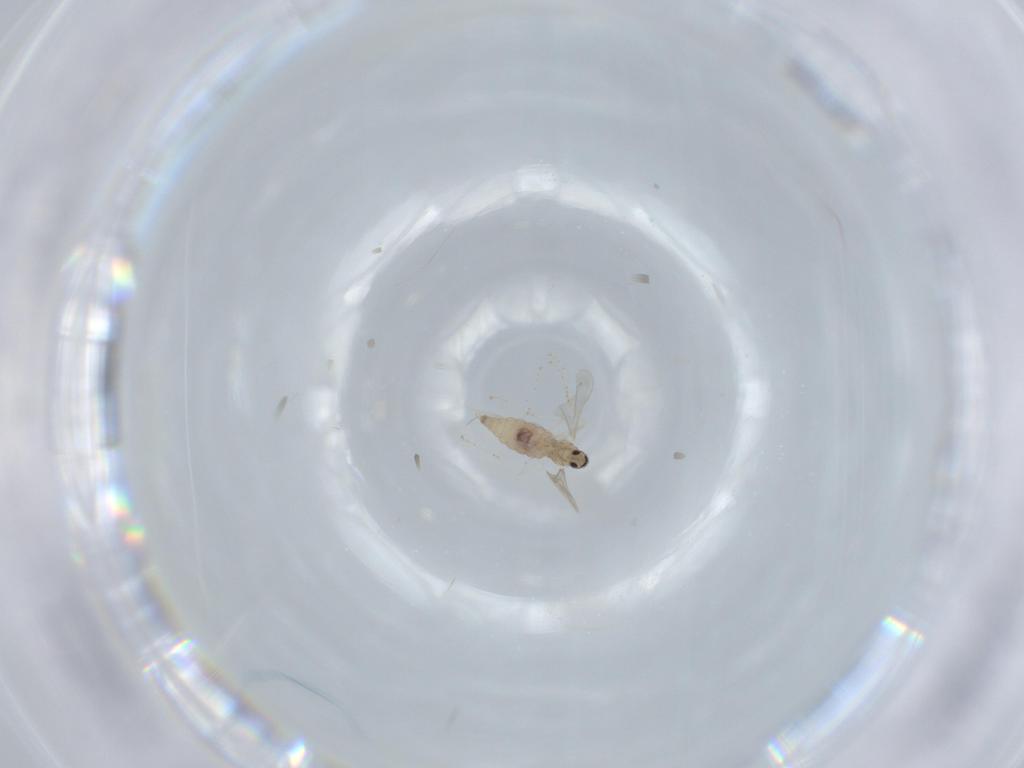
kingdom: Animalia
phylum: Arthropoda
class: Insecta
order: Diptera
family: Cecidomyiidae
